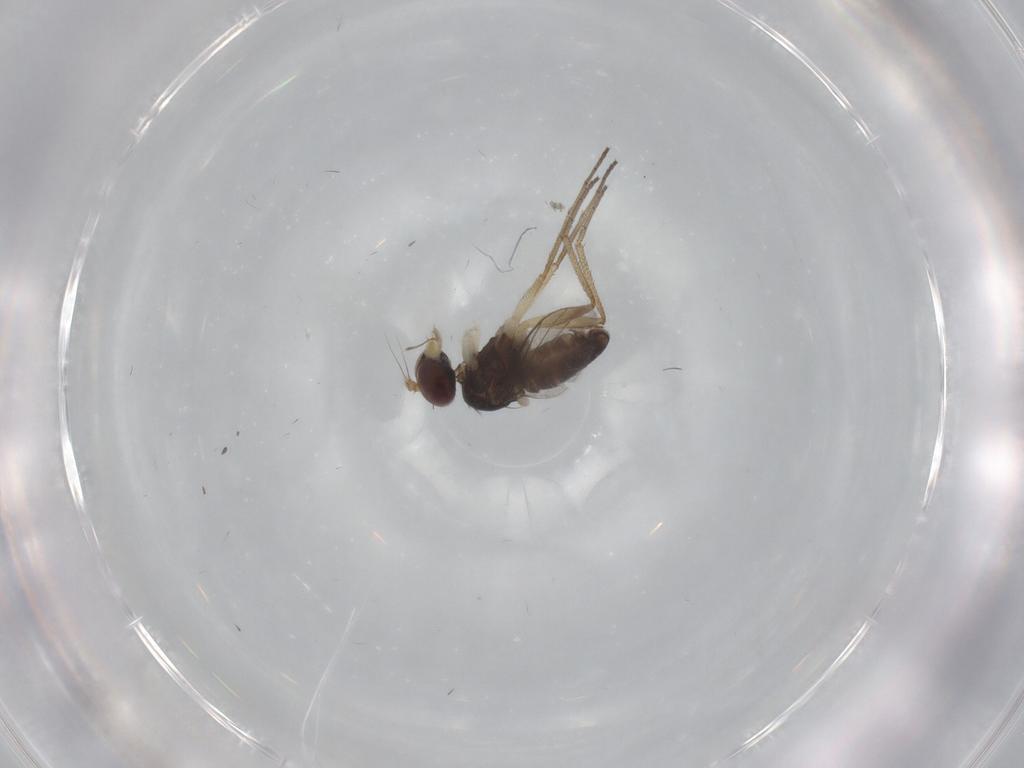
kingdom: Animalia
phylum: Arthropoda
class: Insecta
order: Diptera
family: Dolichopodidae
